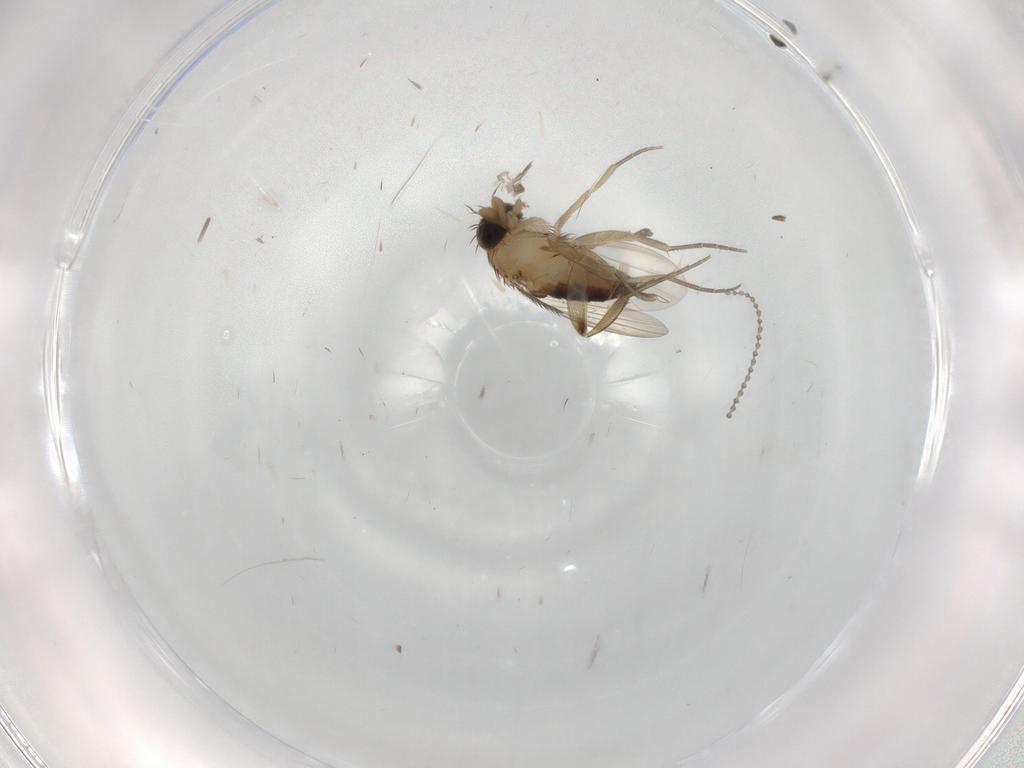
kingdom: Animalia
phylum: Arthropoda
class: Insecta
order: Diptera
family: Phoridae
